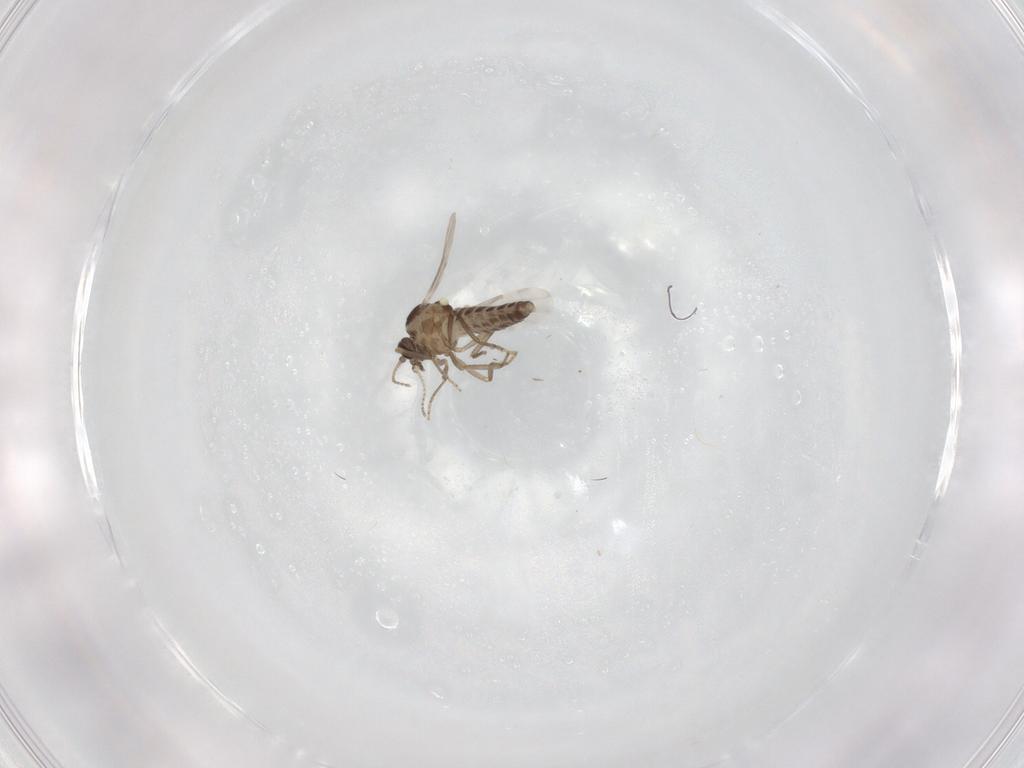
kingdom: Animalia
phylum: Arthropoda
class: Insecta
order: Diptera
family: Ceratopogonidae
